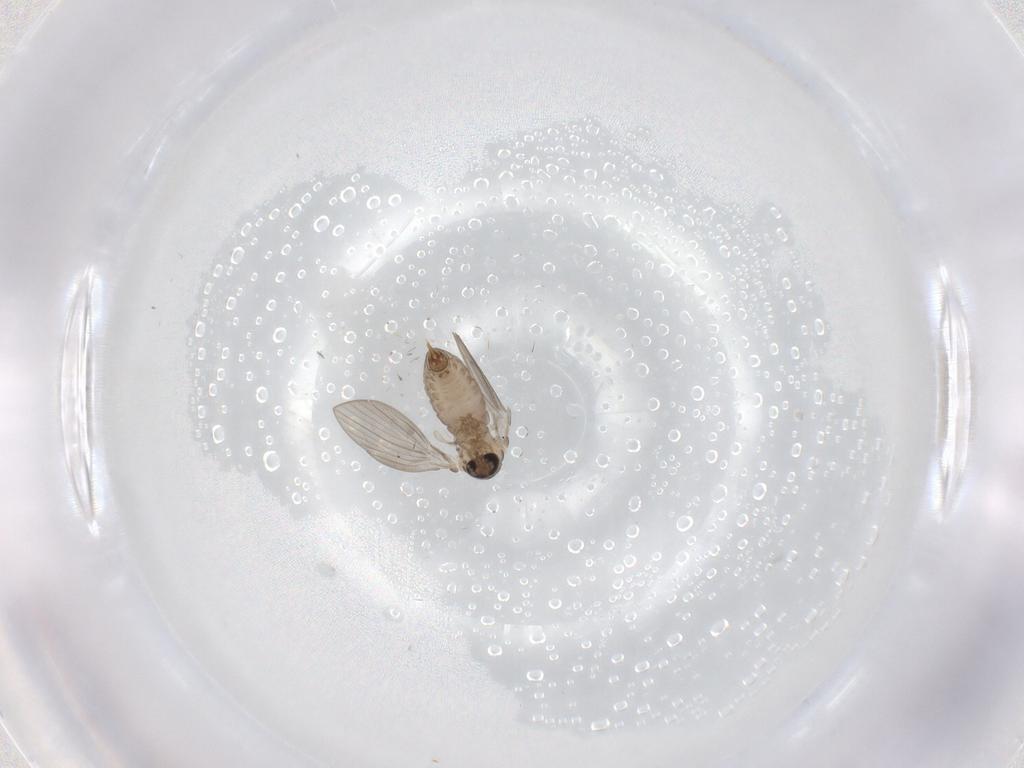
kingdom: Animalia
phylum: Arthropoda
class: Insecta
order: Diptera
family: Psychodidae
